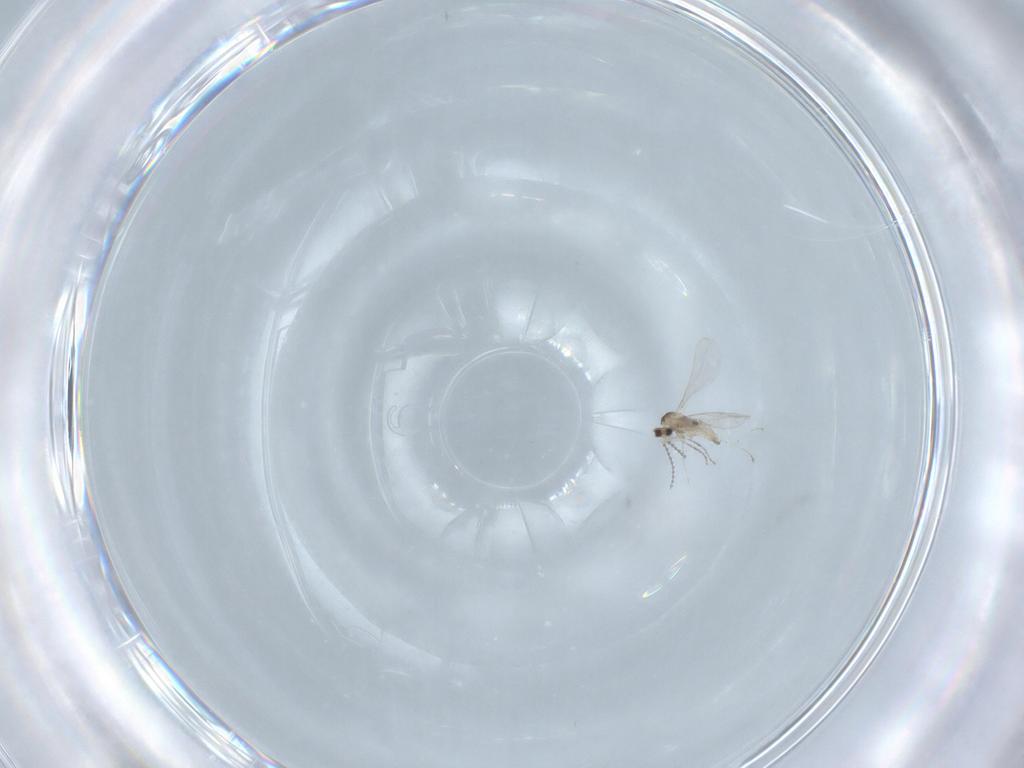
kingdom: Animalia
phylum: Arthropoda
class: Insecta
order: Diptera
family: Cecidomyiidae
